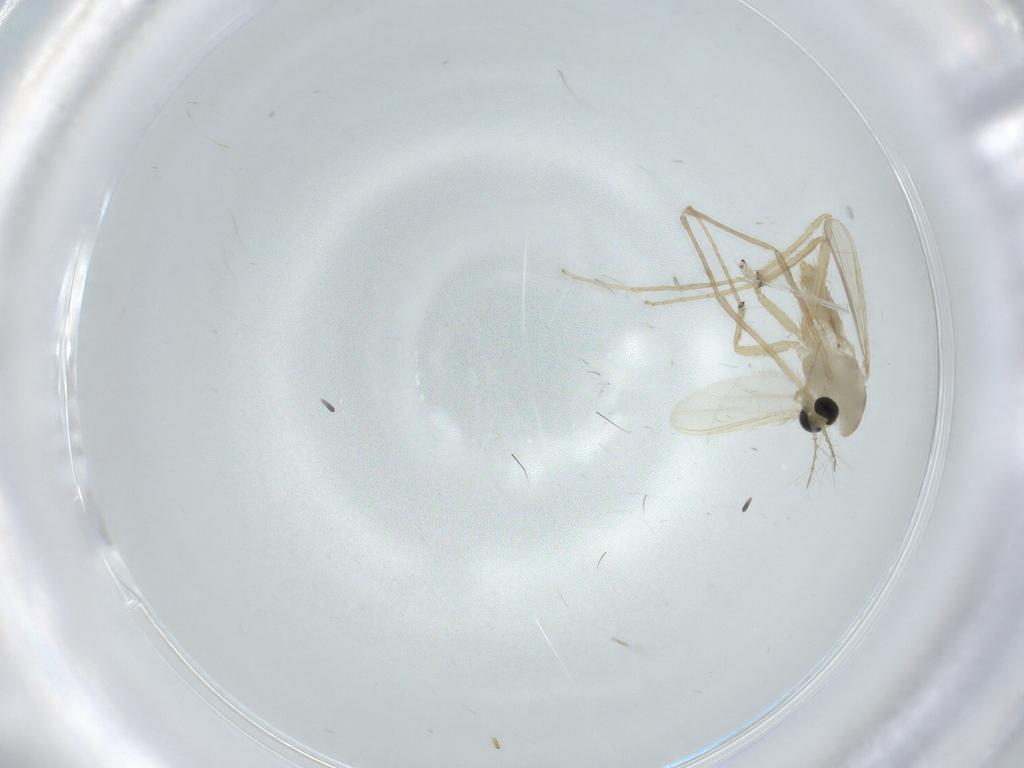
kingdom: Animalia
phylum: Arthropoda
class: Insecta
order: Diptera
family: Chironomidae
